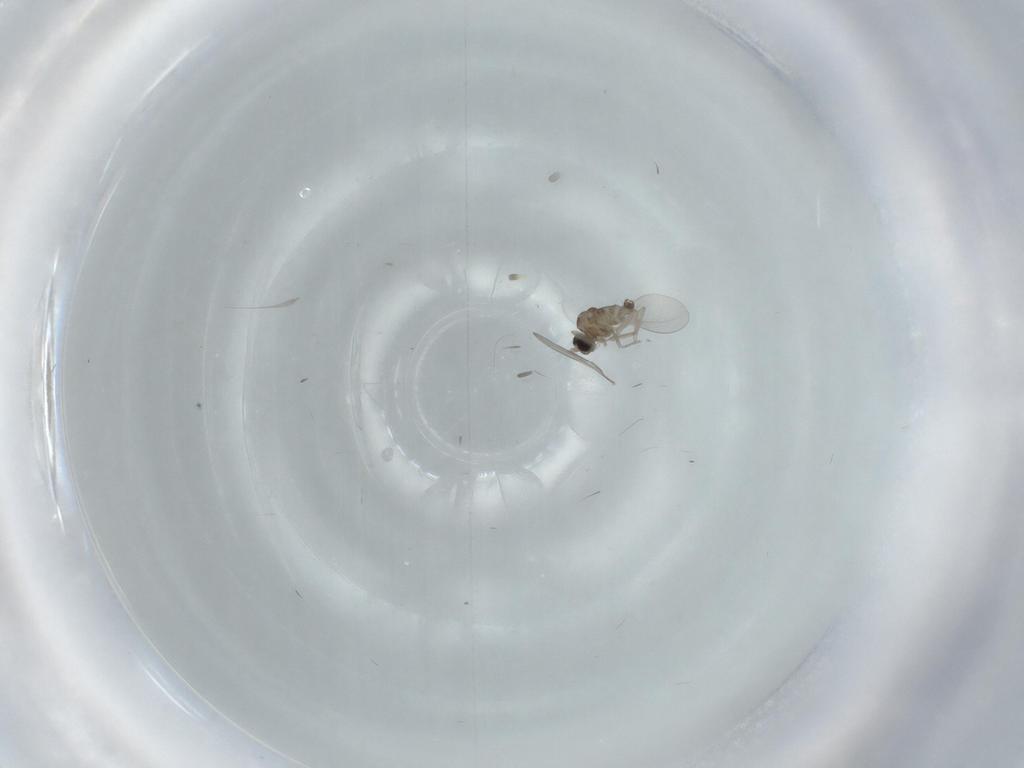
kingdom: Animalia
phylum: Arthropoda
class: Insecta
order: Diptera
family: Cecidomyiidae
